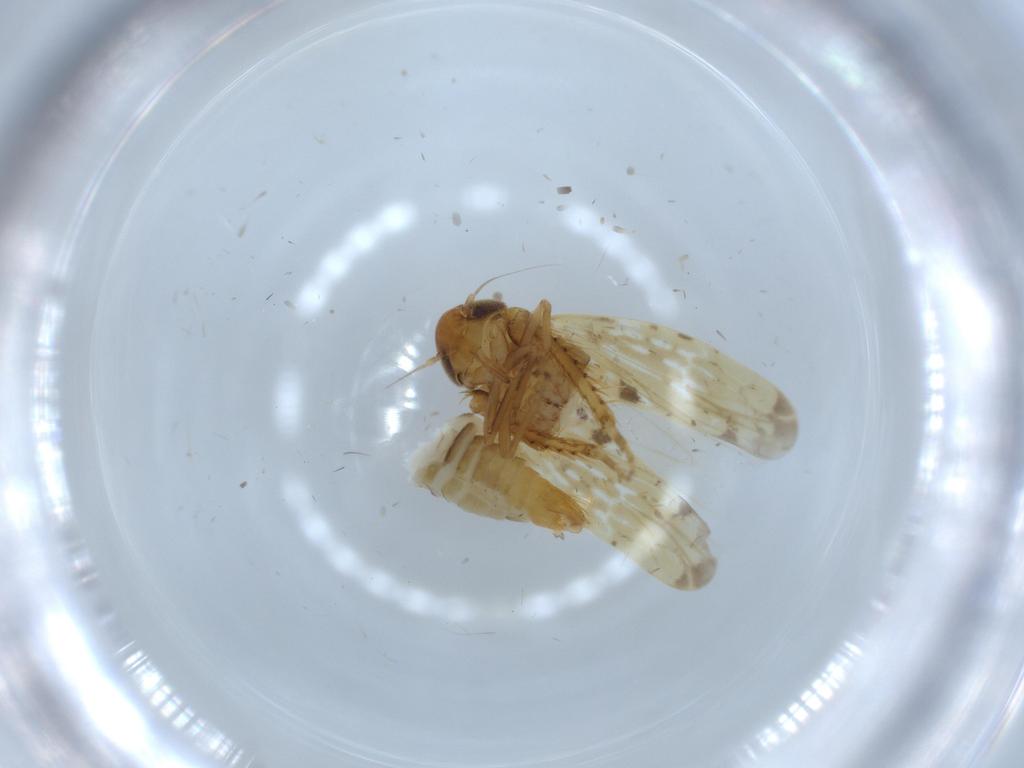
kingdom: Animalia
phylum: Arthropoda
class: Insecta
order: Hemiptera
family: Cicadellidae
